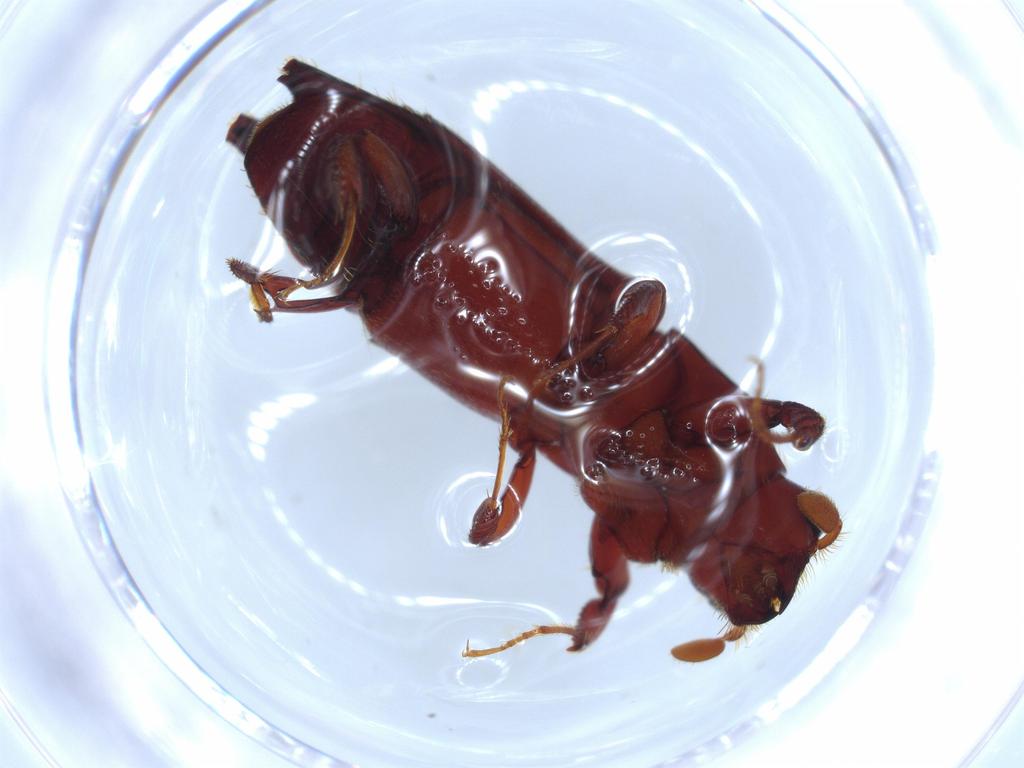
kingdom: Animalia
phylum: Arthropoda
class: Insecta
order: Coleoptera
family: Curculionidae
